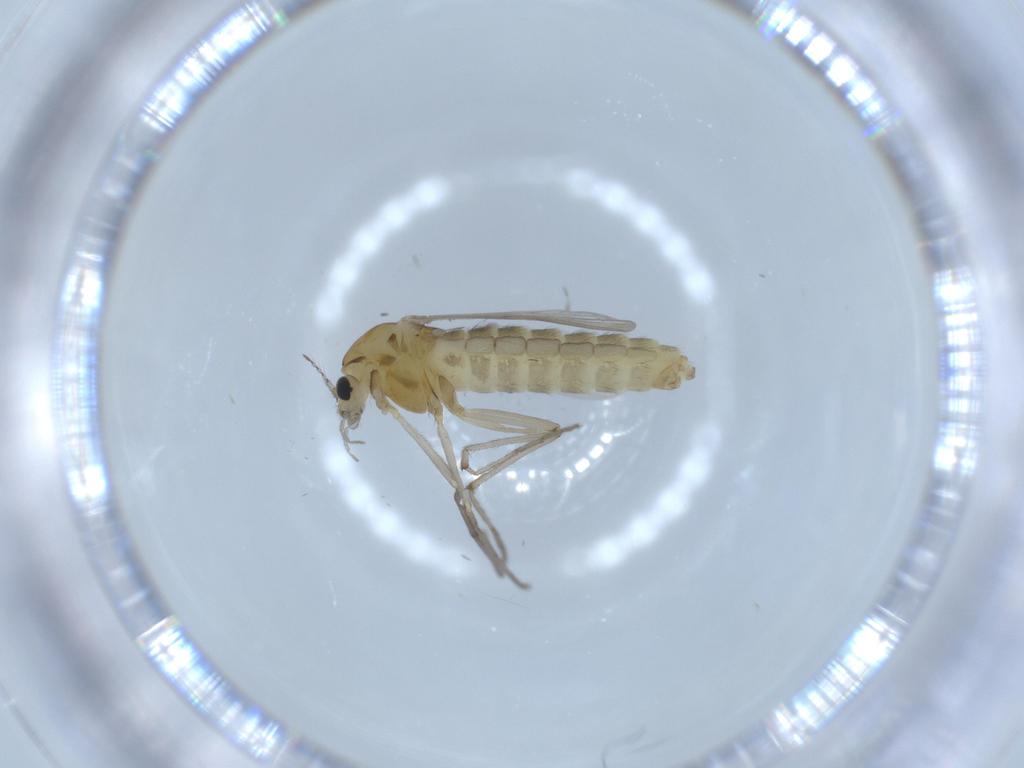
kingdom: Animalia
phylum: Arthropoda
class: Insecta
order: Diptera
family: Chironomidae
